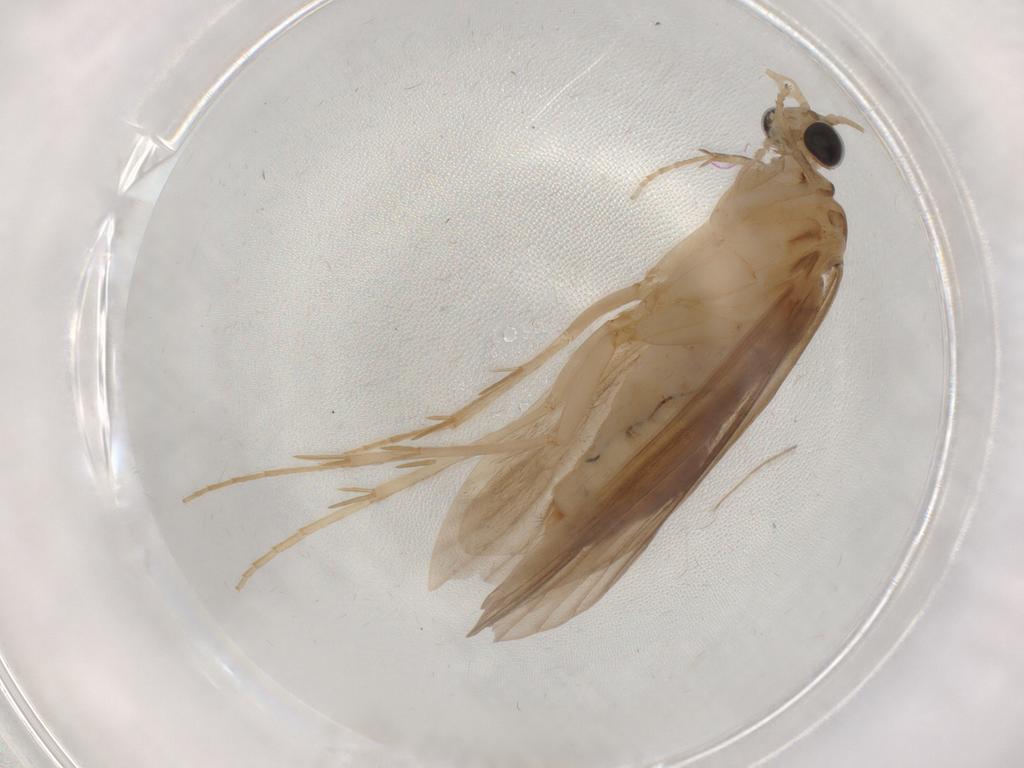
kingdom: Animalia
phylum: Arthropoda
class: Insecta
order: Trichoptera
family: Ecnomidae
